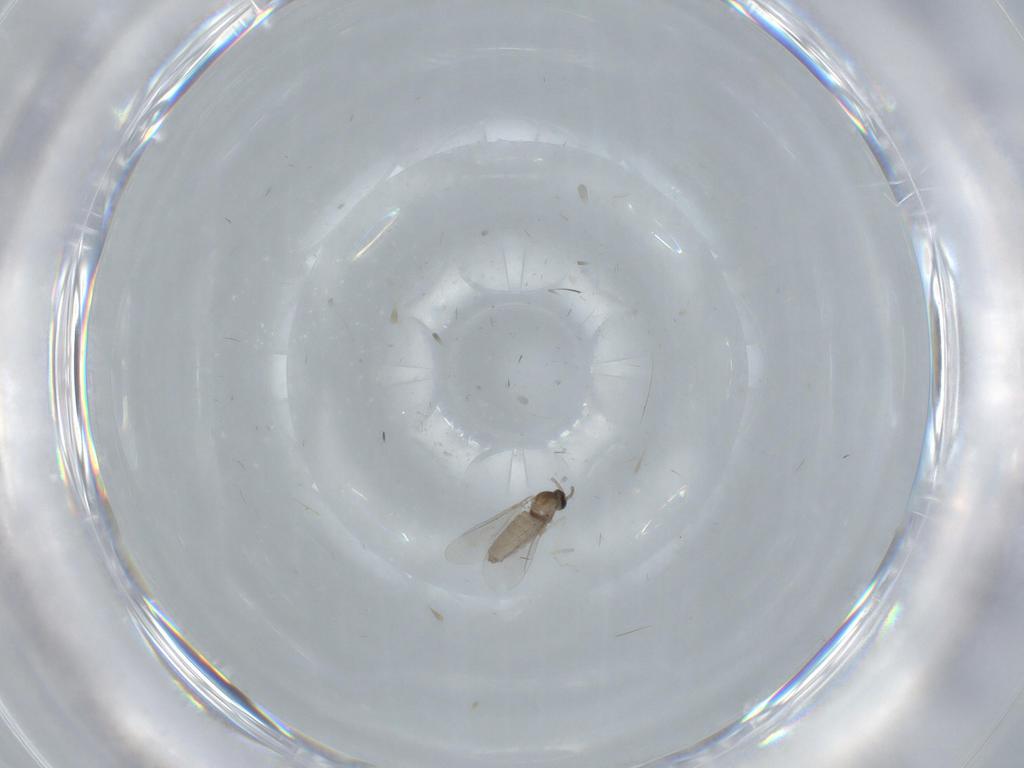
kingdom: Animalia
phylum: Arthropoda
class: Insecta
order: Diptera
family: Cecidomyiidae
